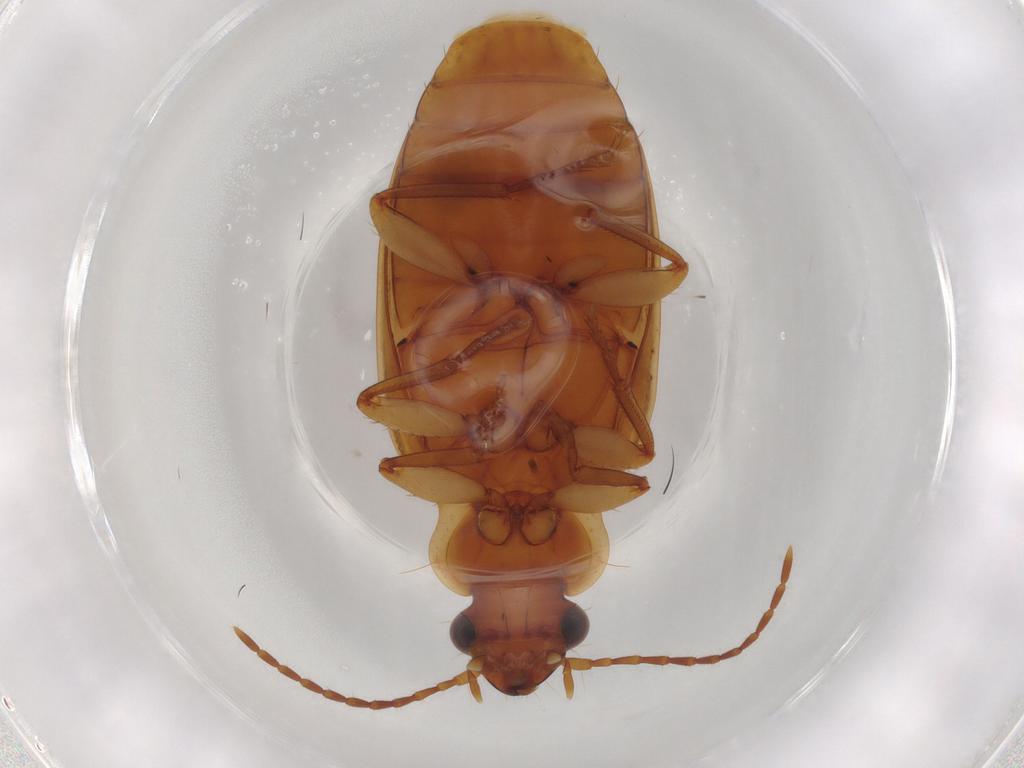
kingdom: Animalia
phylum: Arthropoda
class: Insecta
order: Coleoptera
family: Carabidae
